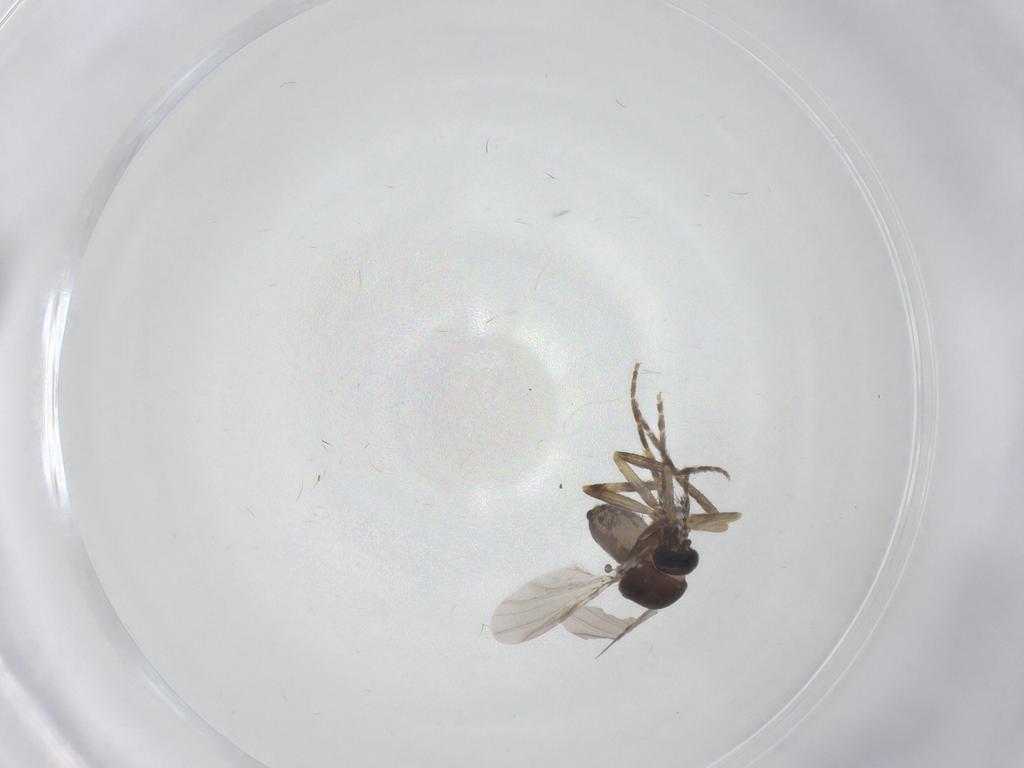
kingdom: Animalia
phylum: Arthropoda
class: Insecta
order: Diptera
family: Ceratopogonidae
